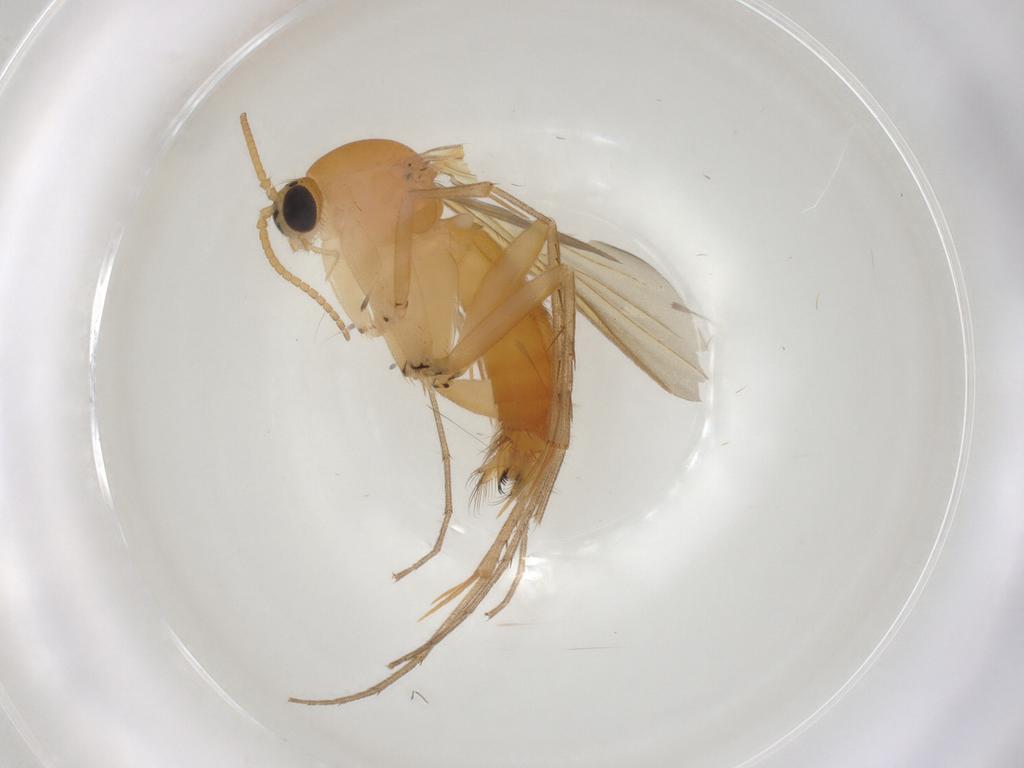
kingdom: Animalia
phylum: Arthropoda
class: Insecta
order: Diptera
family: Mycetophilidae
